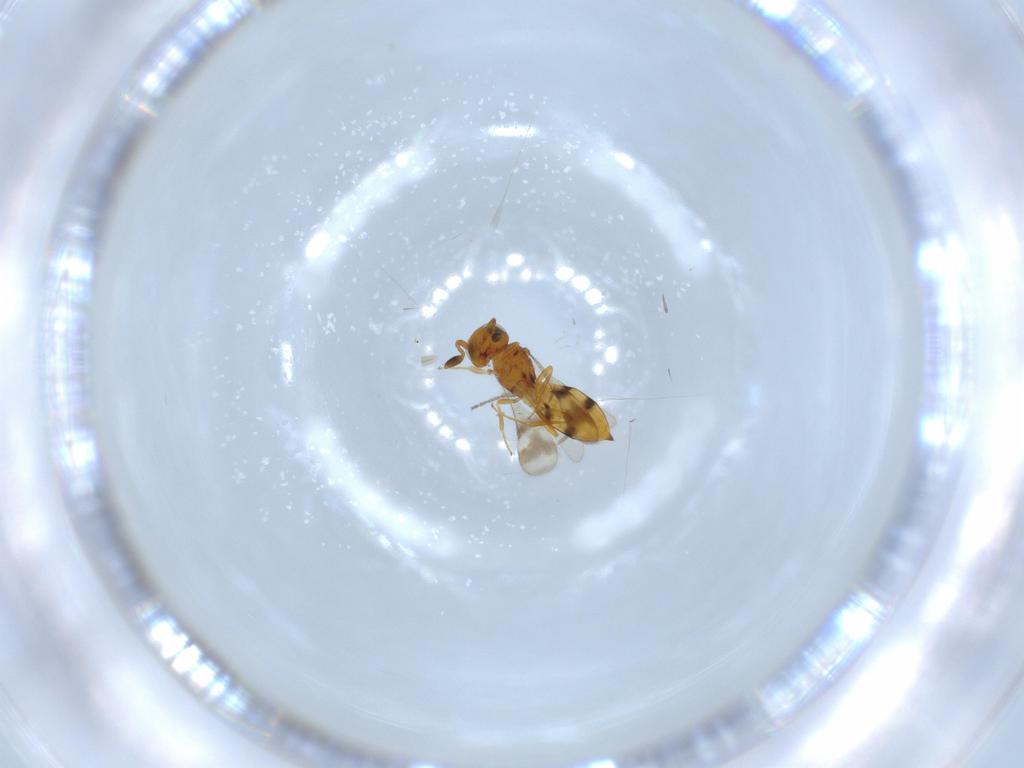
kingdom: Animalia
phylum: Arthropoda
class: Insecta
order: Hymenoptera
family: Scelionidae
